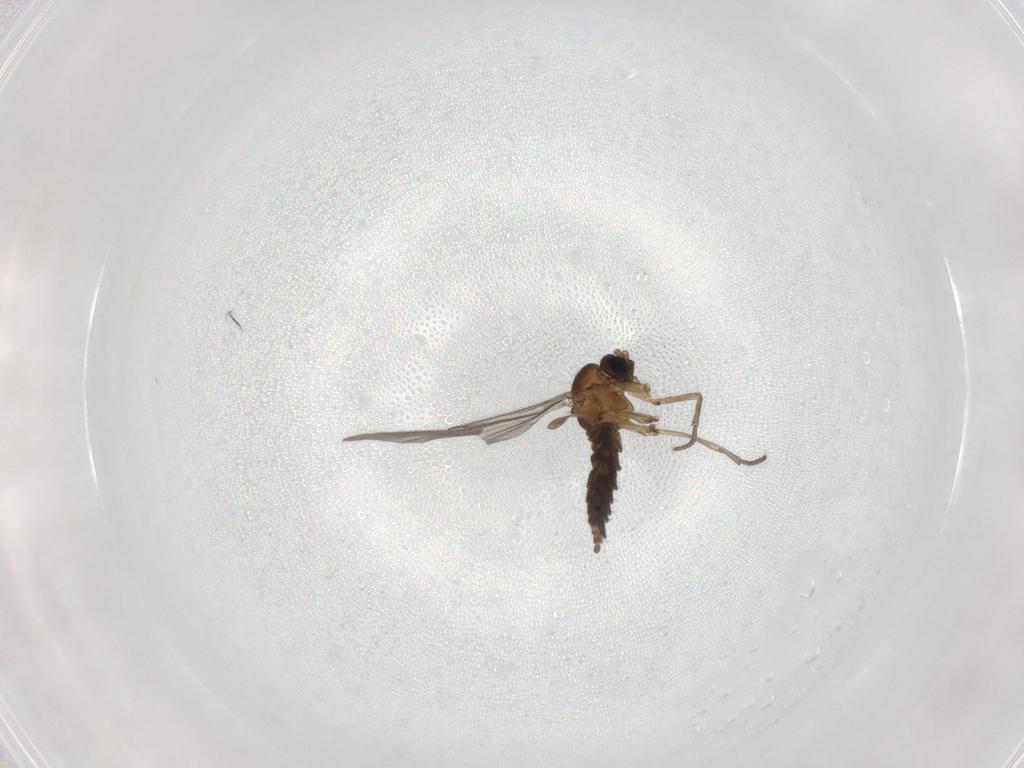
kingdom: Animalia
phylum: Arthropoda
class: Insecta
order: Diptera
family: Sciaridae
